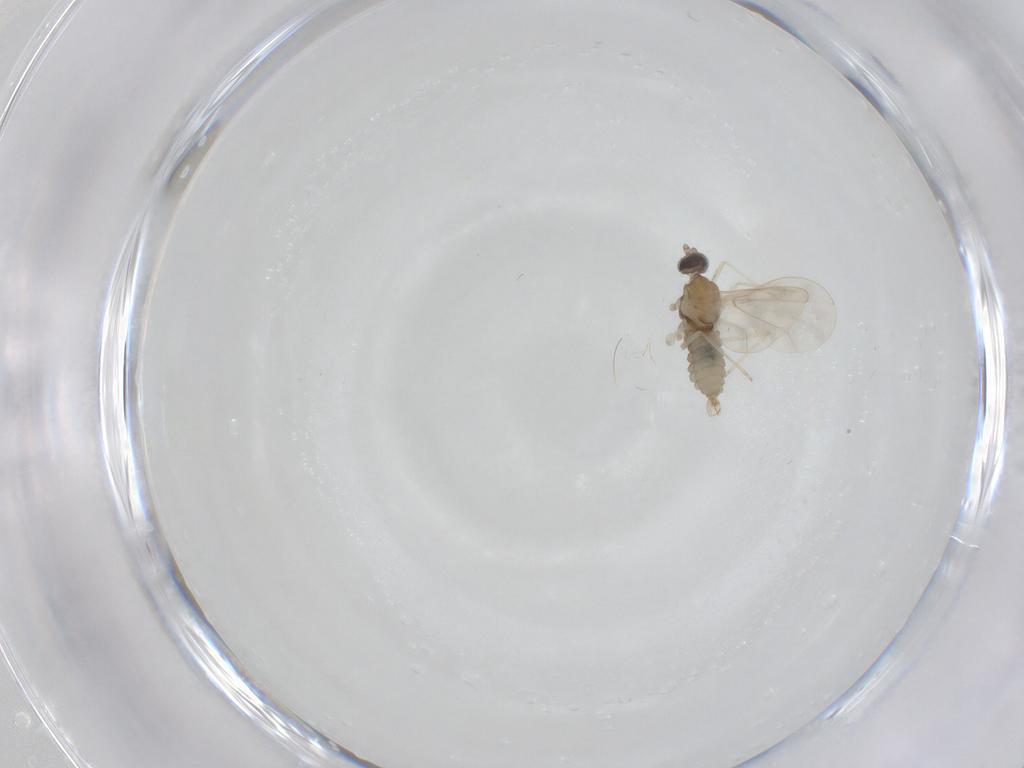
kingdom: Animalia
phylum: Arthropoda
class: Insecta
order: Diptera
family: Cecidomyiidae
